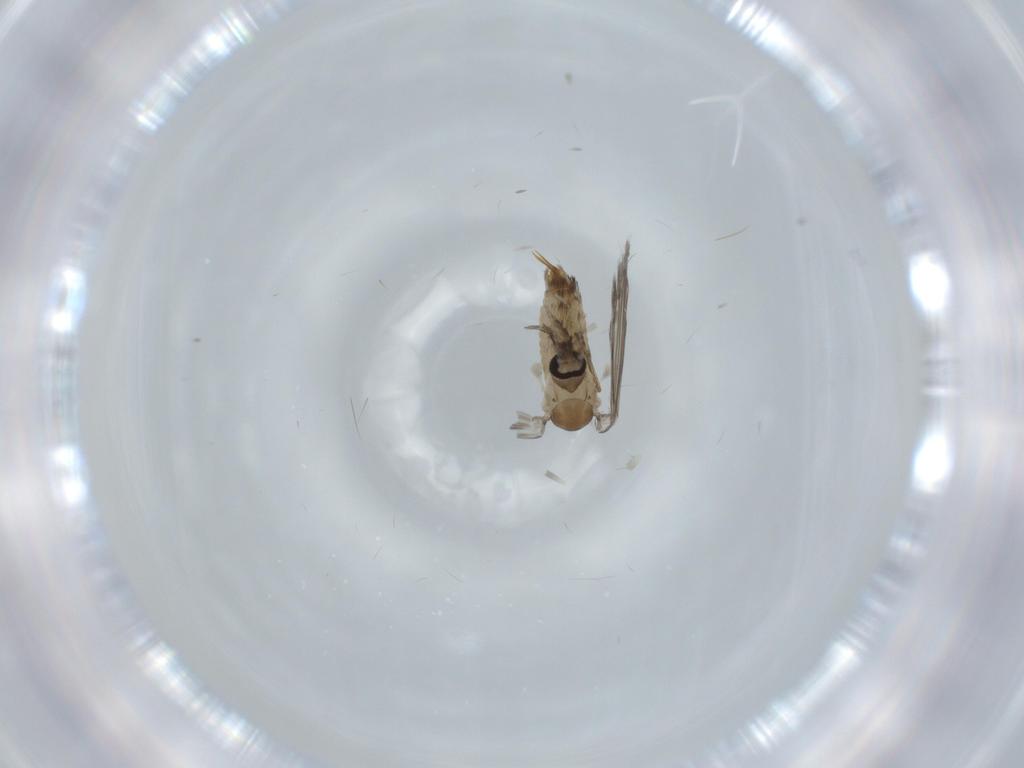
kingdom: Animalia
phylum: Arthropoda
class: Insecta
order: Diptera
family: Psychodidae
